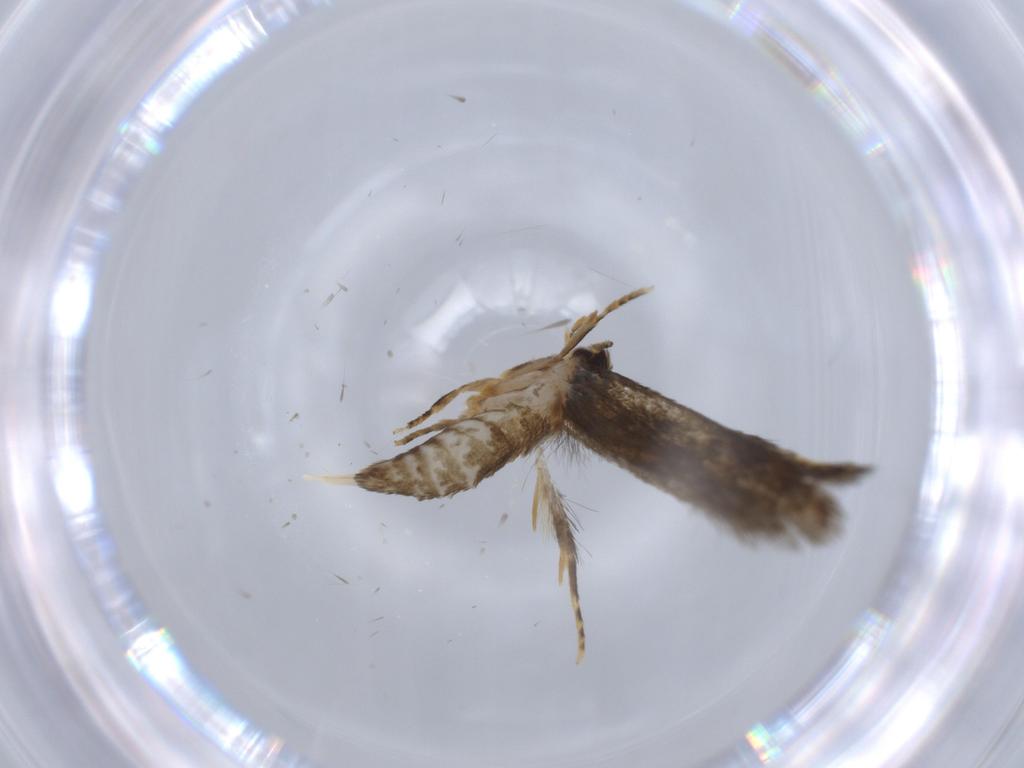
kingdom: Animalia
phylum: Arthropoda
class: Insecta
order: Lepidoptera
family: Tineidae
